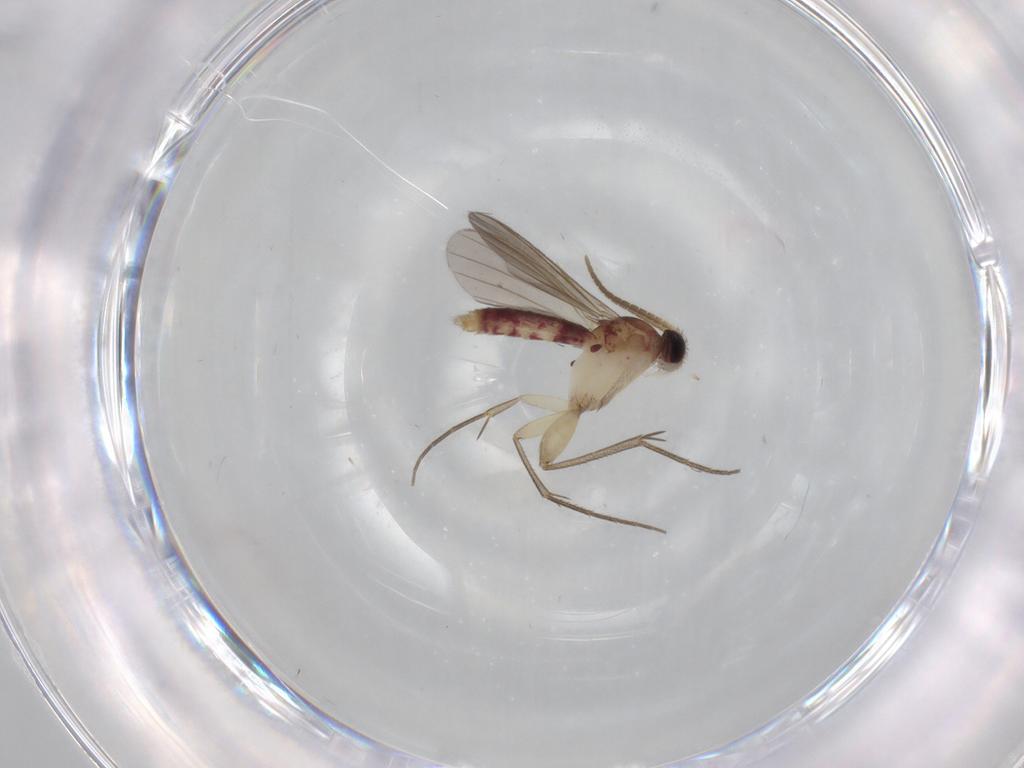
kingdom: Animalia
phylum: Arthropoda
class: Insecta
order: Diptera
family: Mycetophilidae
